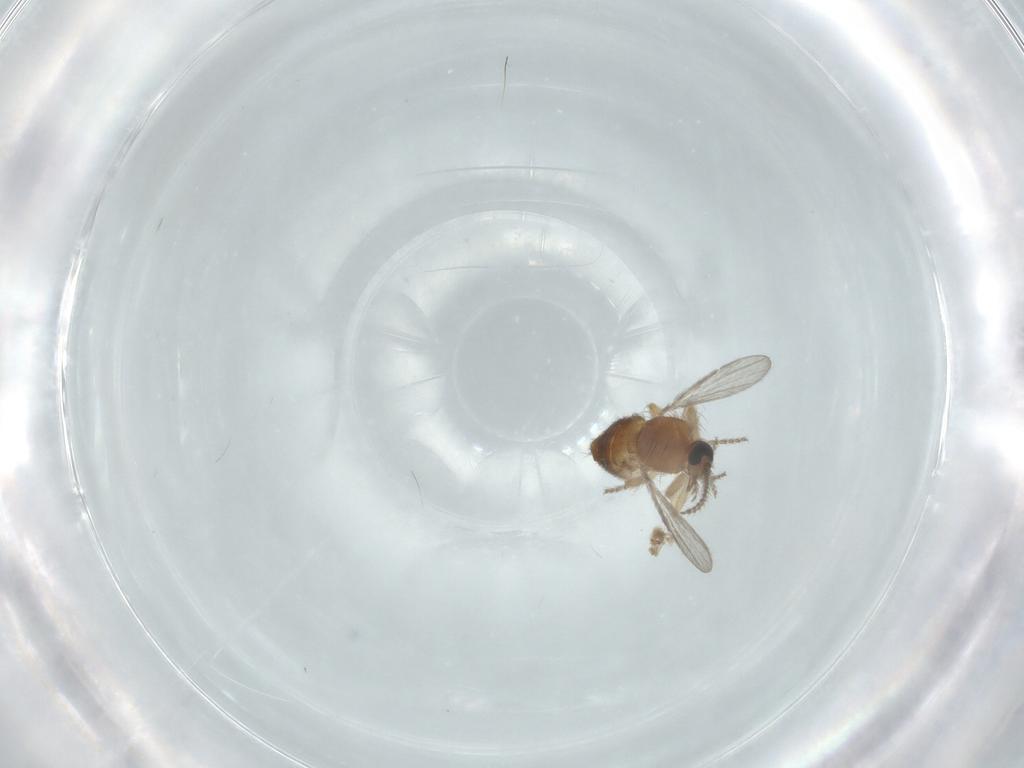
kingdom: Animalia
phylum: Arthropoda
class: Insecta
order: Diptera
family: Ceratopogonidae
